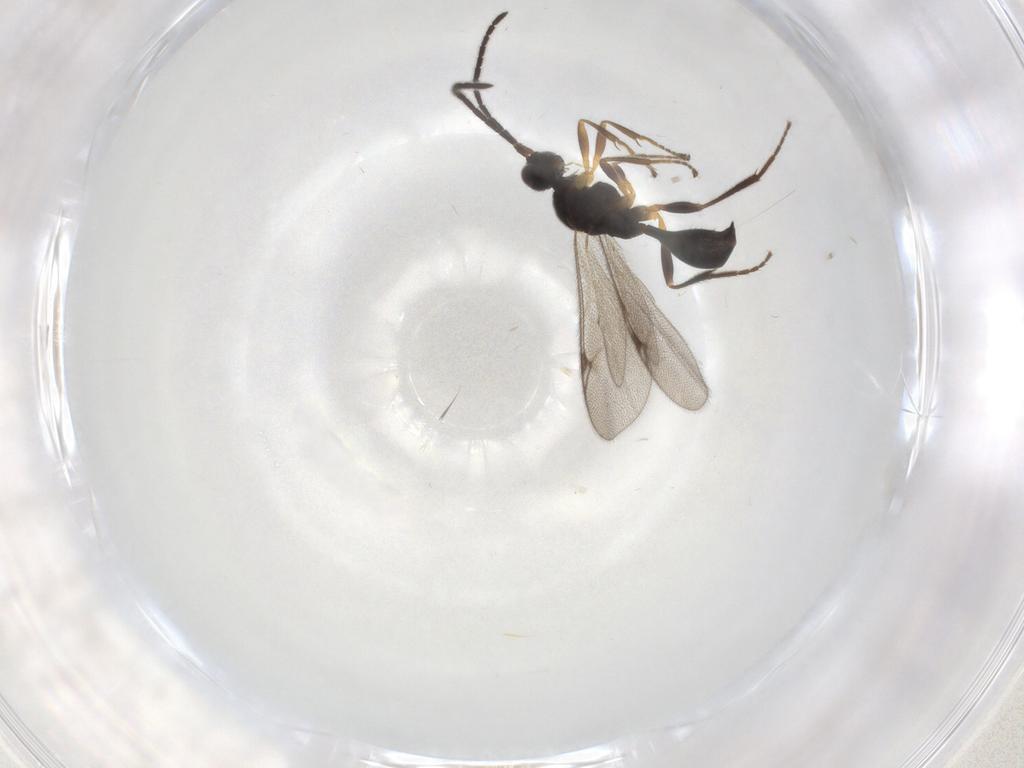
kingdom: Animalia
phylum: Arthropoda
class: Insecta
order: Hymenoptera
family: Proctotrupidae
